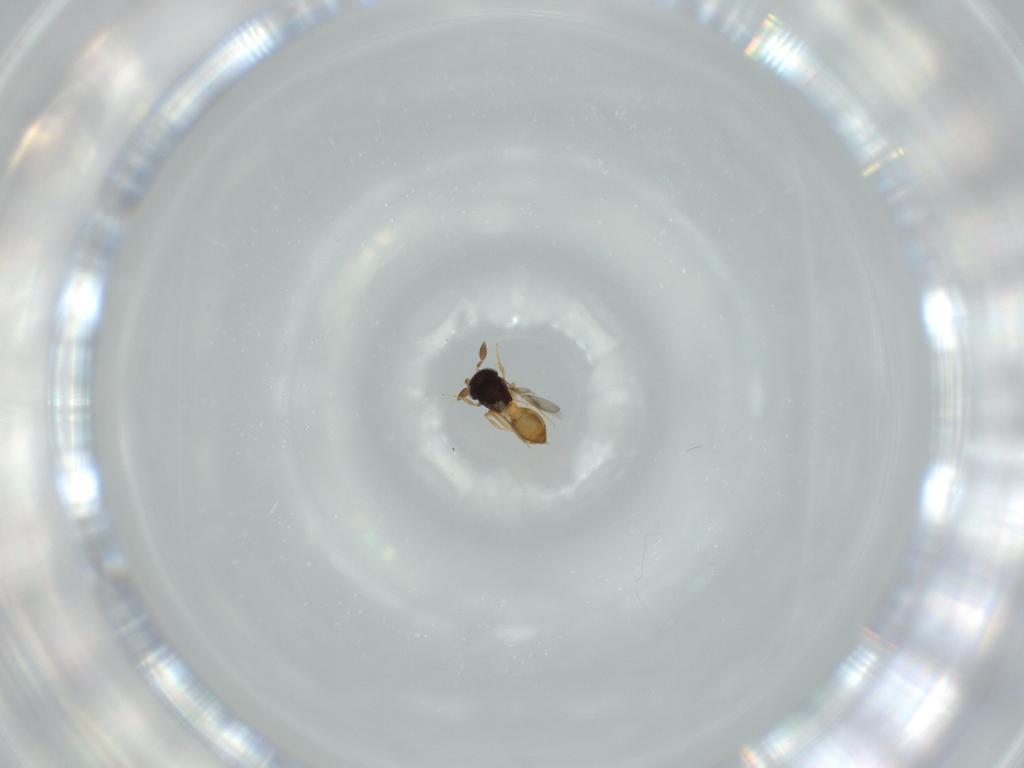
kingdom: Animalia
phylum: Arthropoda
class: Insecta
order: Hymenoptera
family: Scelionidae
